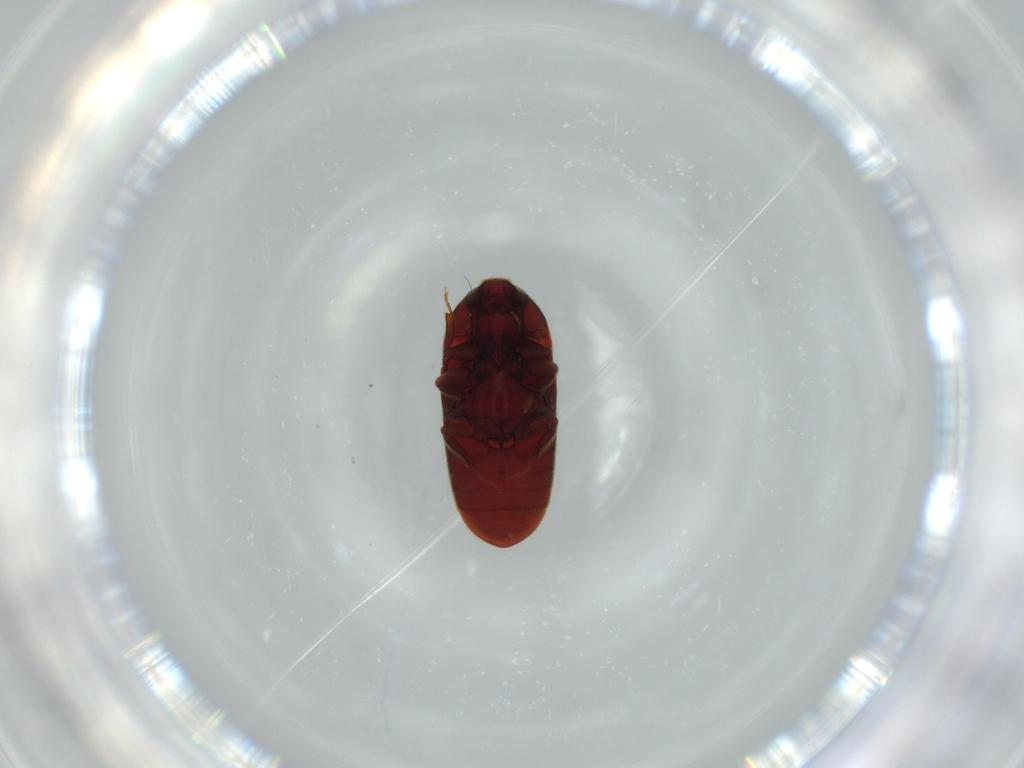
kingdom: Animalia
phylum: Arthropoda
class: Insecta
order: Coleoptera
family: Throscidae
